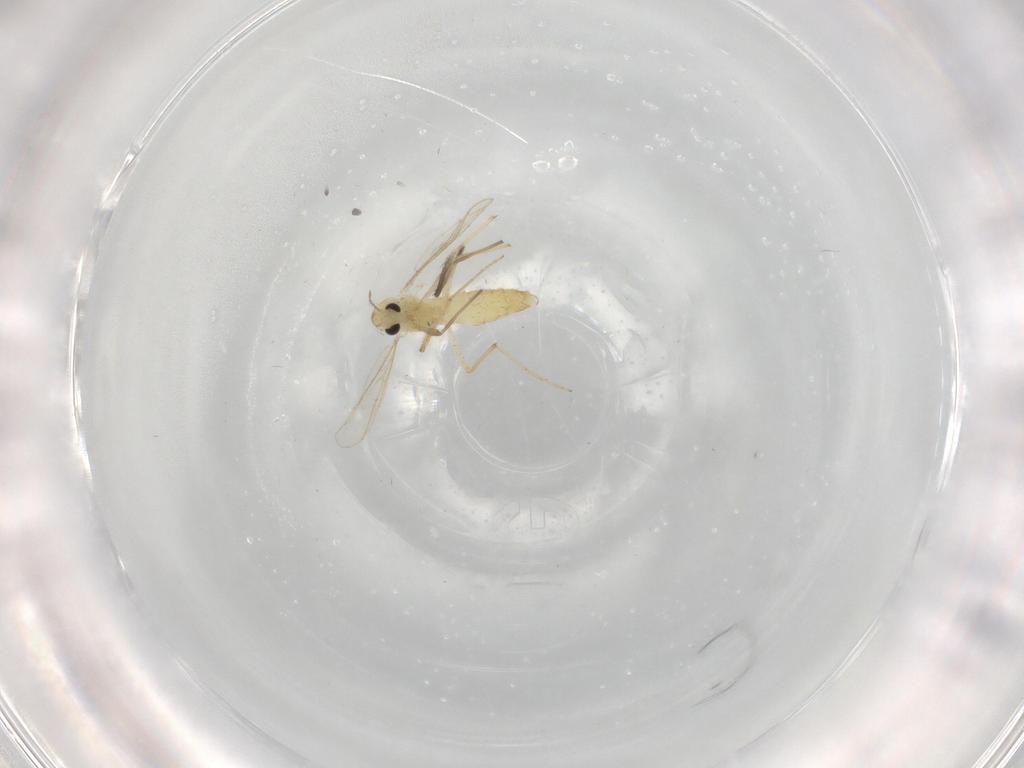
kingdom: Animalia
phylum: Arthropoda
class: Insecta
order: Diptera
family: Chironomidae
